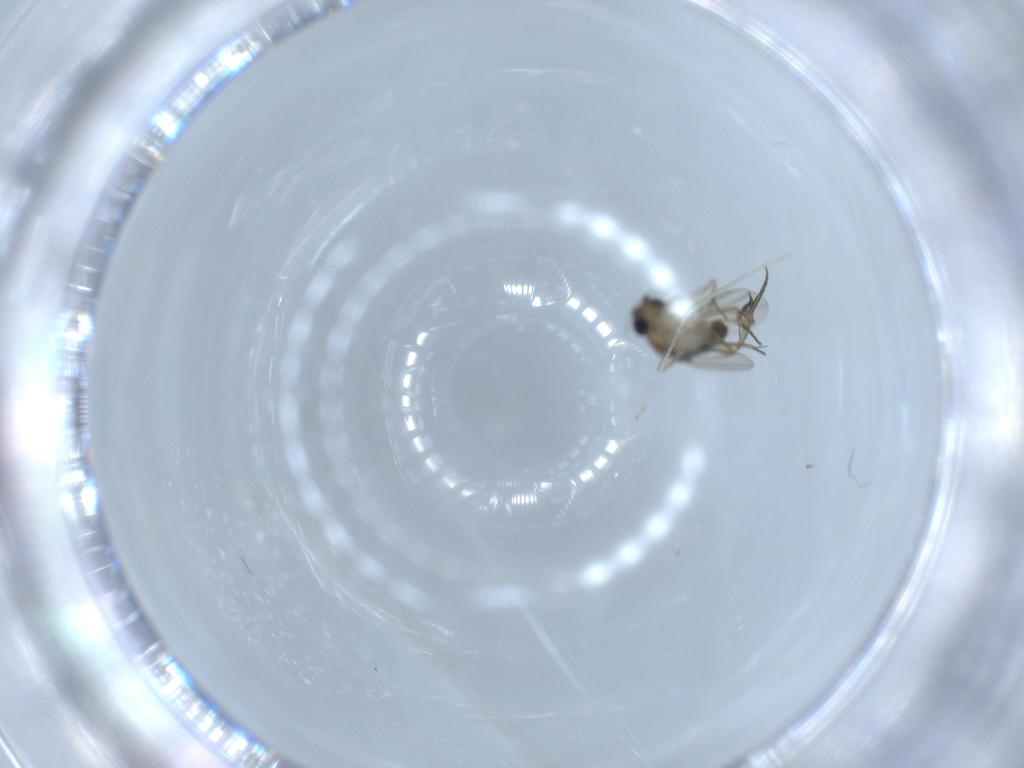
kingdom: Animalia
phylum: Arthropoda
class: Insecta
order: Diptera
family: Phoridae
